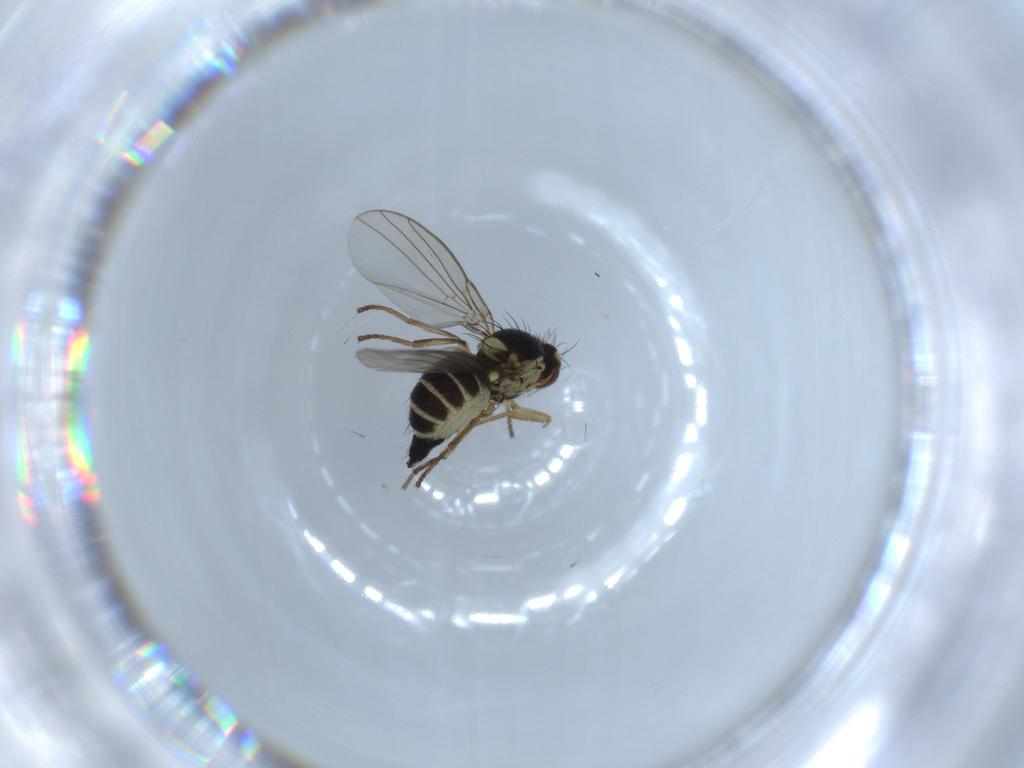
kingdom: Animalia
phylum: Arthropoda
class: Insecta
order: Diptera
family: Agromyzidae
